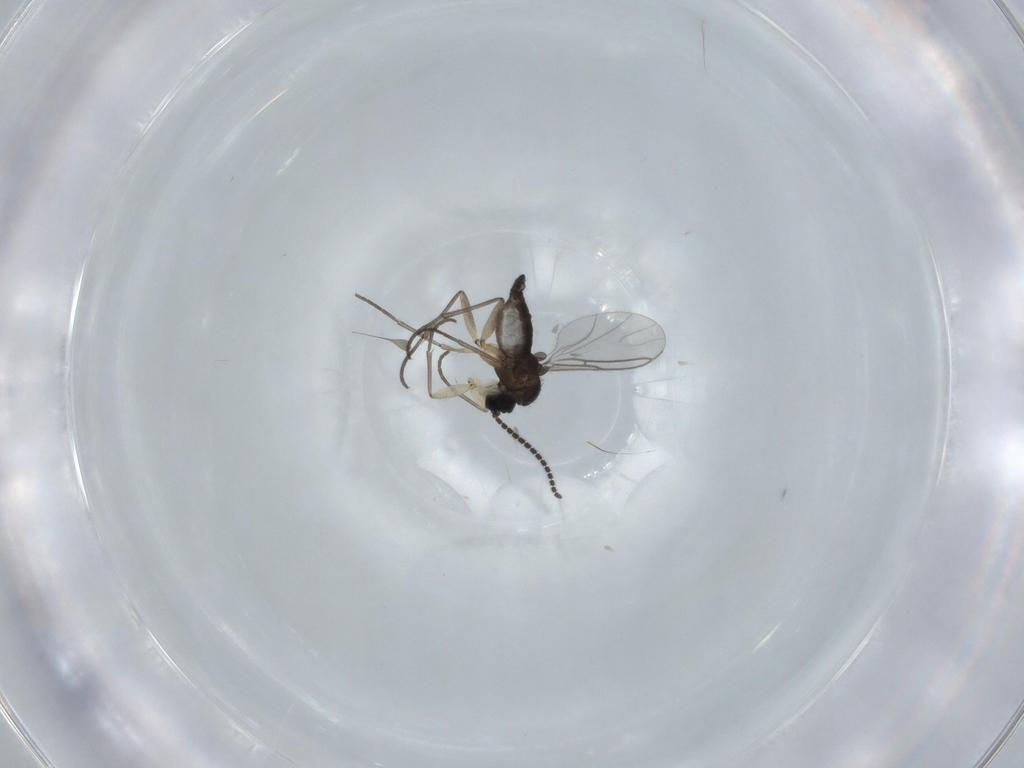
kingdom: Animalia
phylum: Arthropoda
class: Insecta
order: Diptera
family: Sciaridae
